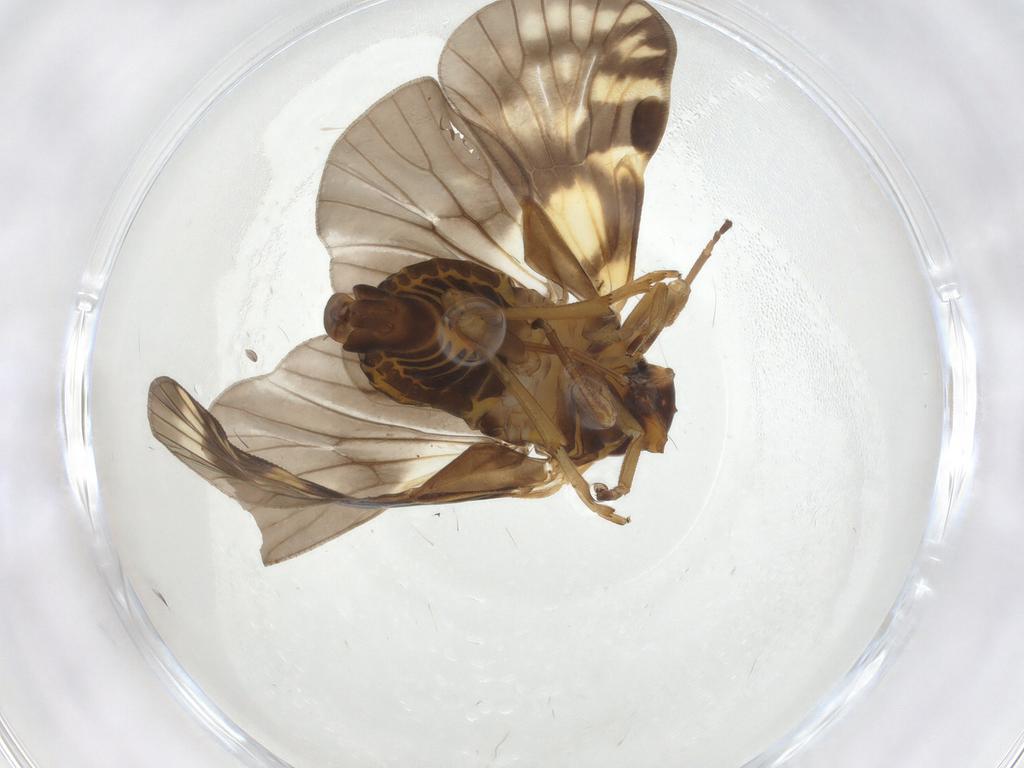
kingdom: Animalia
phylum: Arthropoda
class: Insecta
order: Hemiptera
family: Cixiidae
